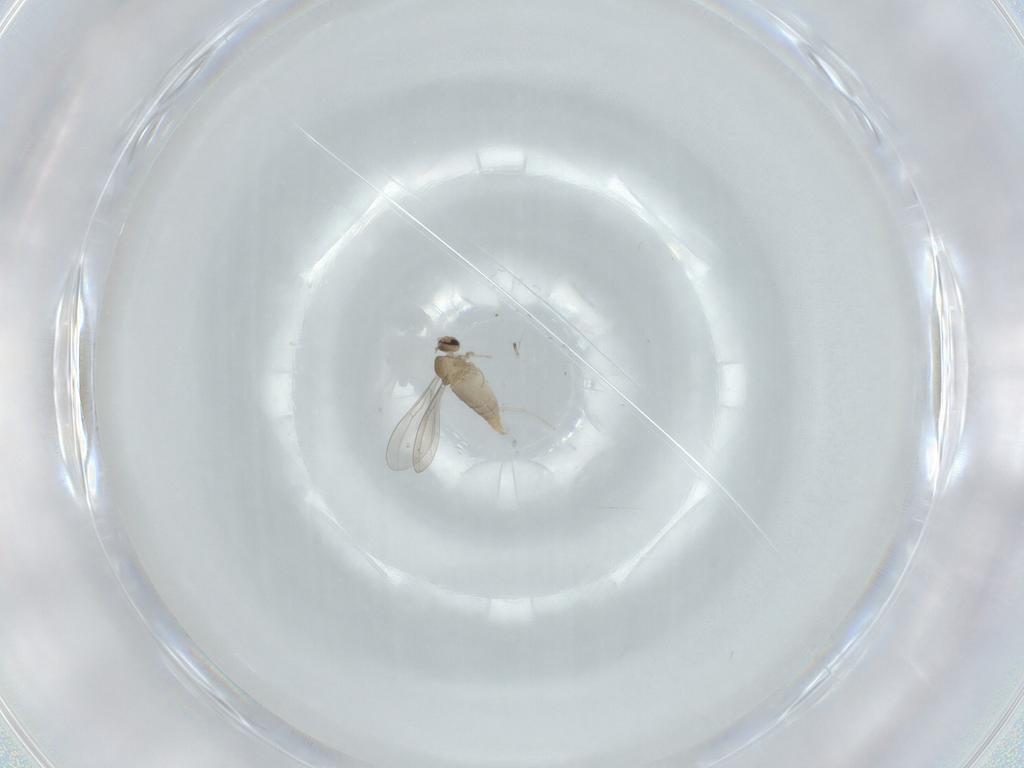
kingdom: Animalia
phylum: Arthropoda
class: Insecta
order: Diptera
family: Cecidomyiidae
